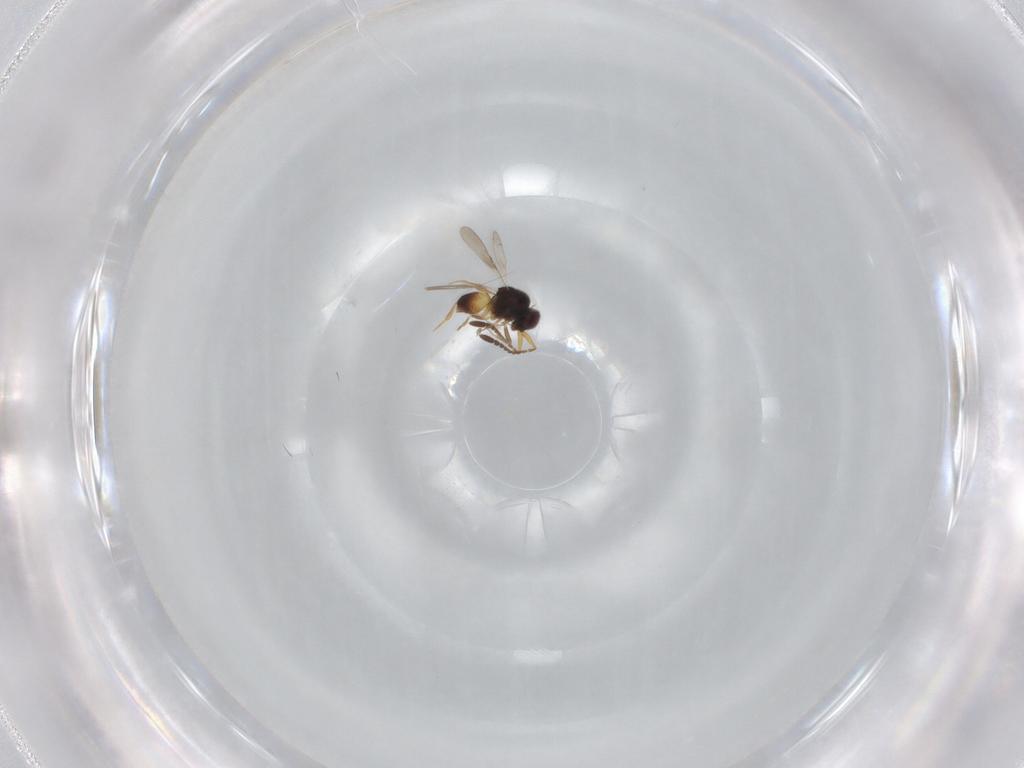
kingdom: Animalia
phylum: Arthropoda
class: Insecta
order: Hymenoptera
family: Ceraphronidae
